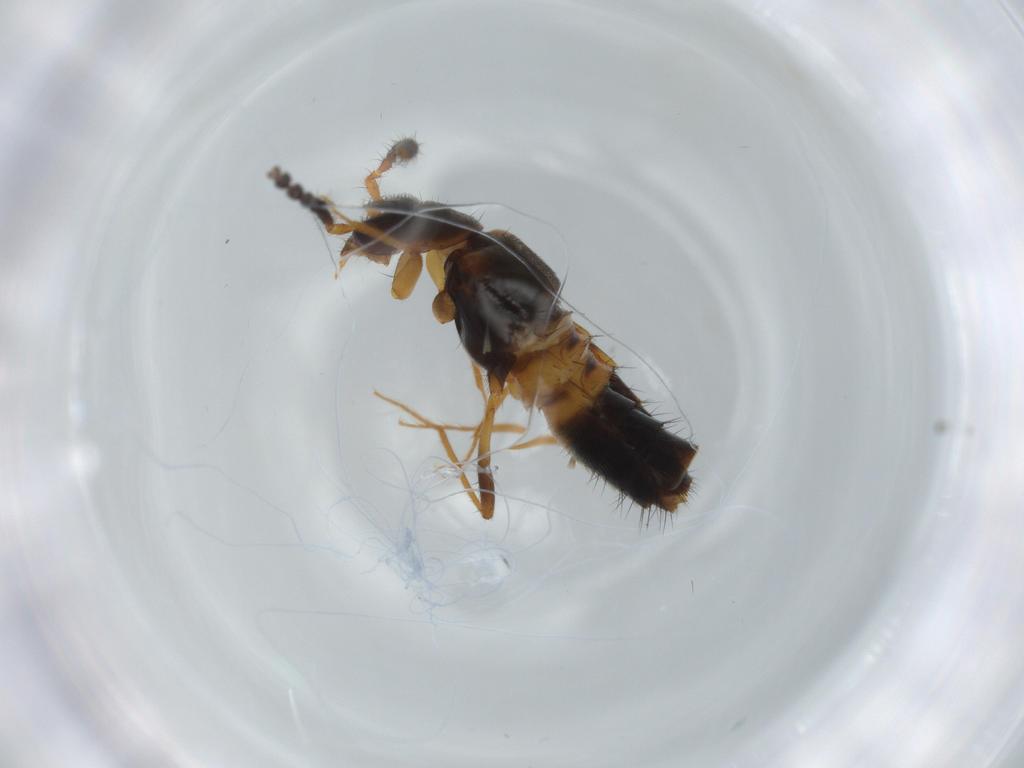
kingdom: Animalia
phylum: Arthropoda
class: Insecta
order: Coleoptera
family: Staphylinidae
